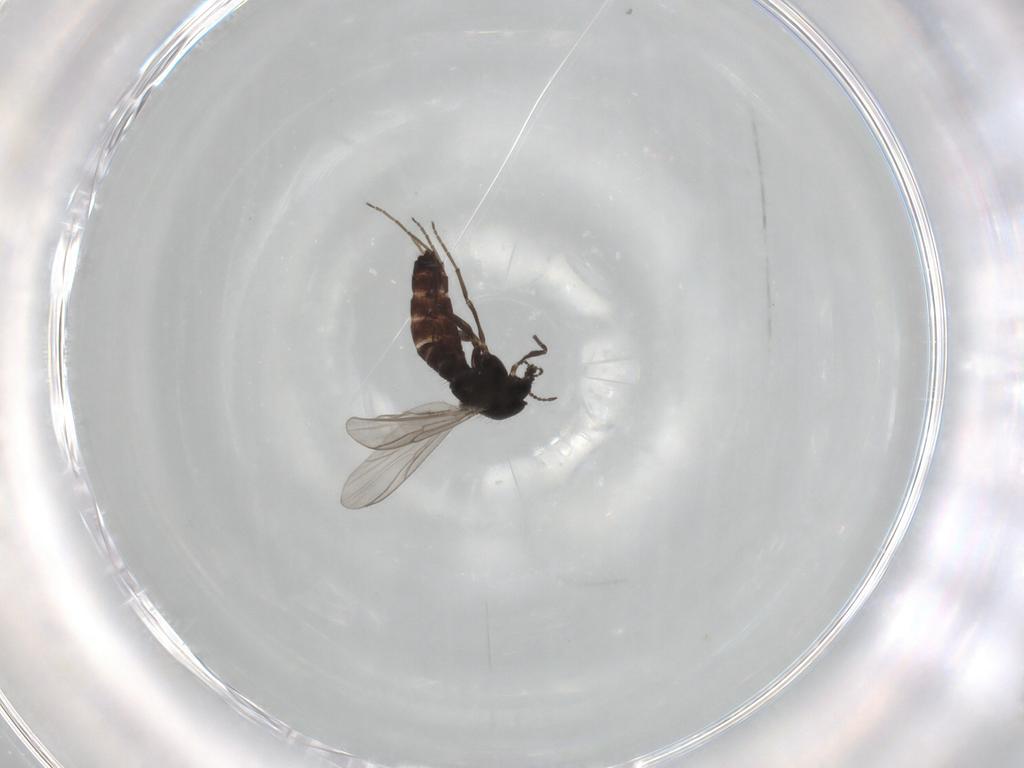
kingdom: Animalia
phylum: Arthropoda
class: Insecta
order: Diptera
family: Chironomidae
